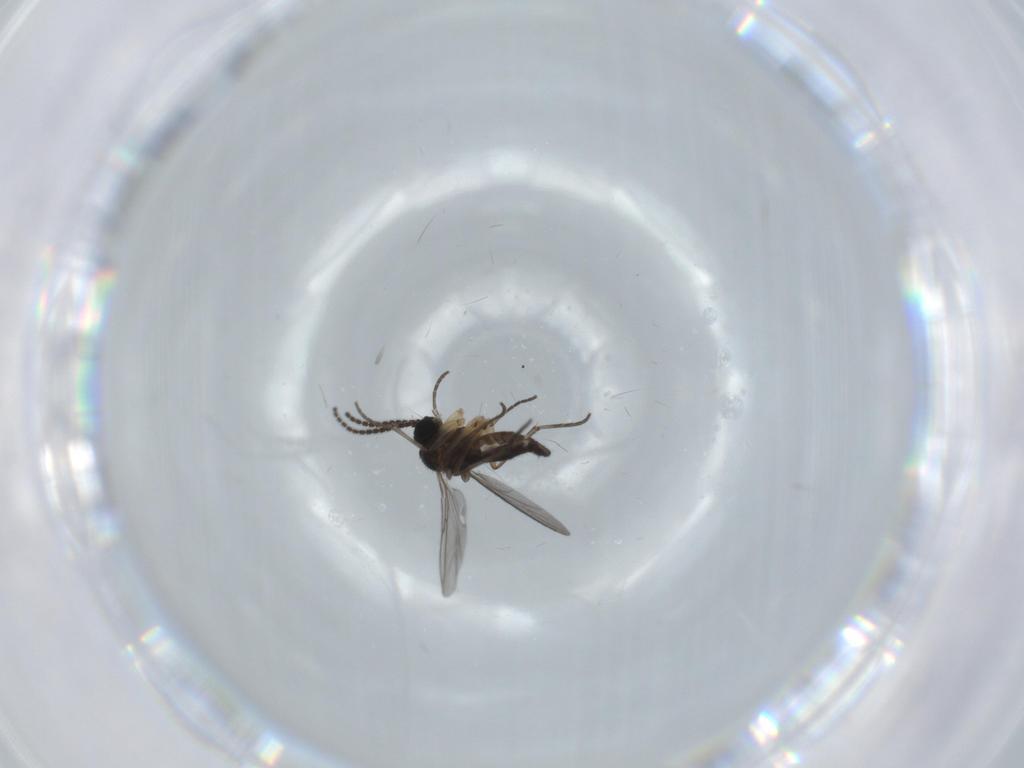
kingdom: Animalia
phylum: Arthropoda
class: Insecta
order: Diptera
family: Sciaridae
